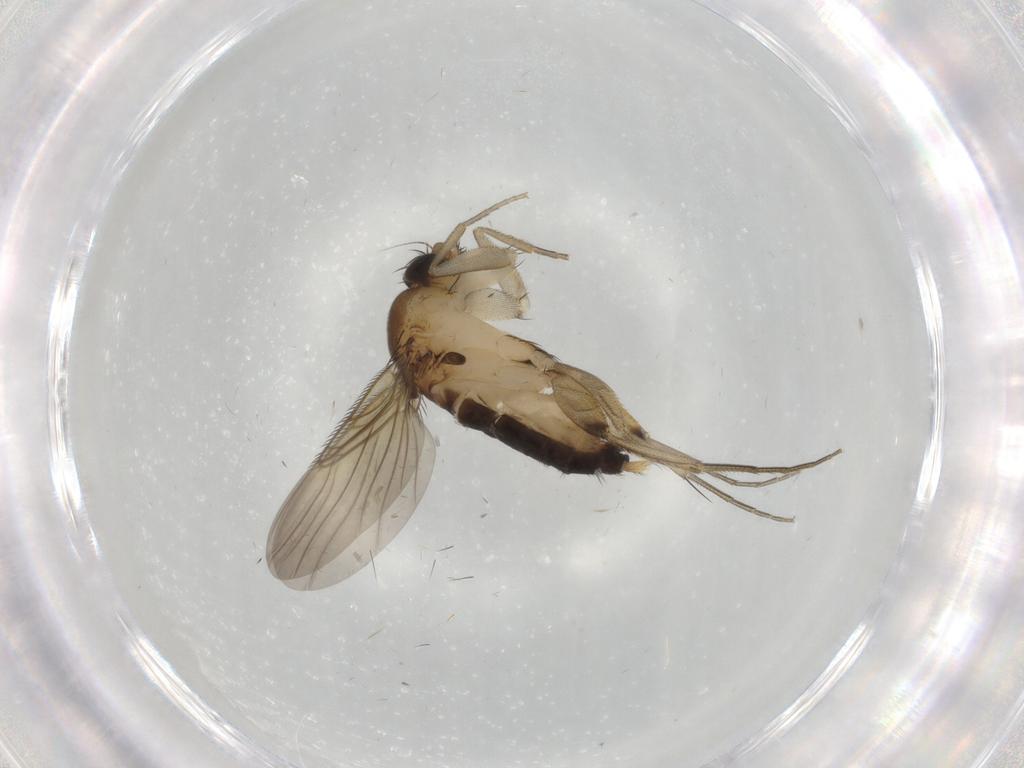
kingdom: Animalia
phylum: Arthropoda
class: Insecta
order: Diptera
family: Phoridae
